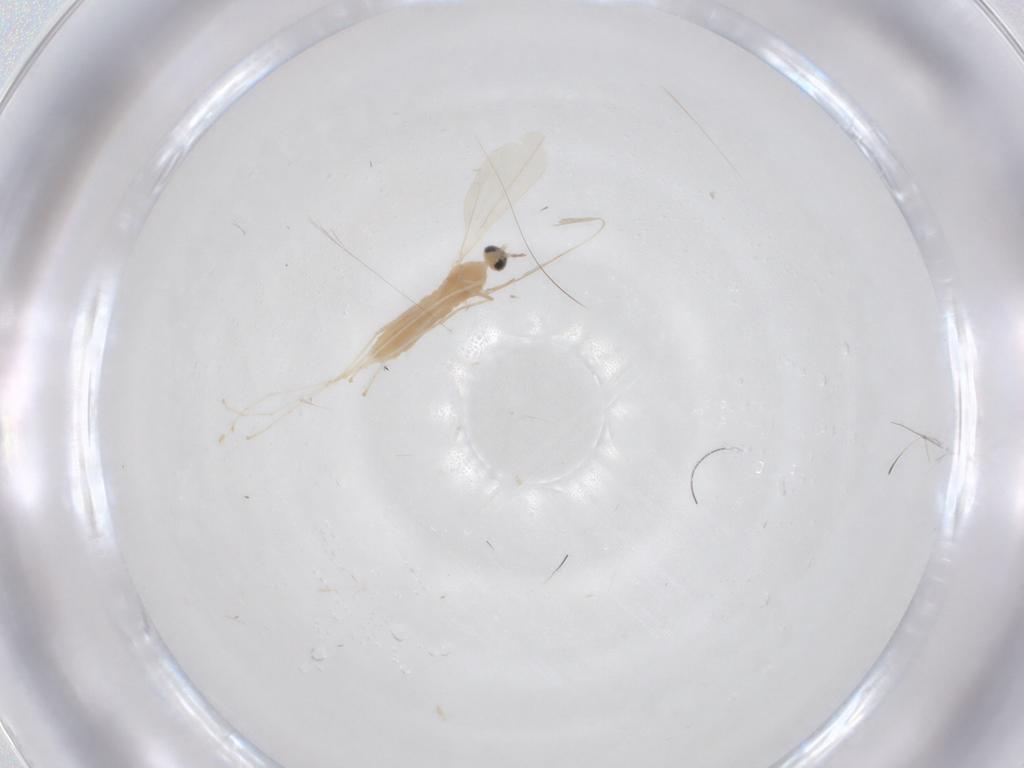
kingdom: Animalia
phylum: Arthropoda
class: Insecta
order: Diptera
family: Cecidomyiidae
